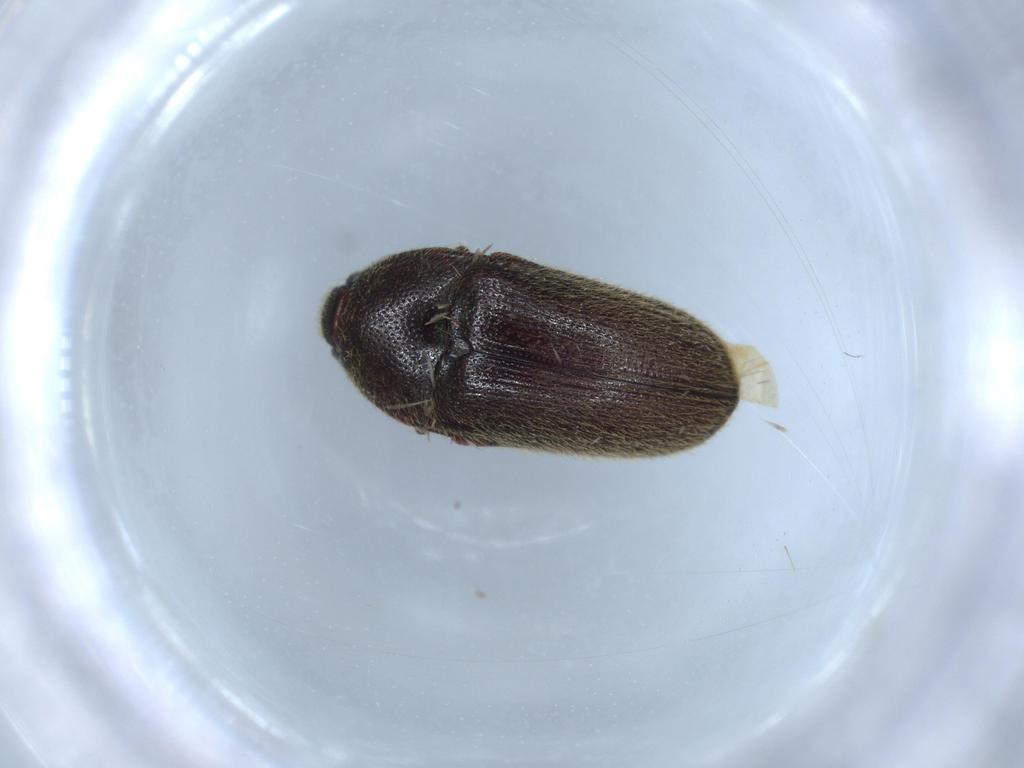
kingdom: Animalia
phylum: Arthropoda
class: Insecta
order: Coleoptera
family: Throscidae
